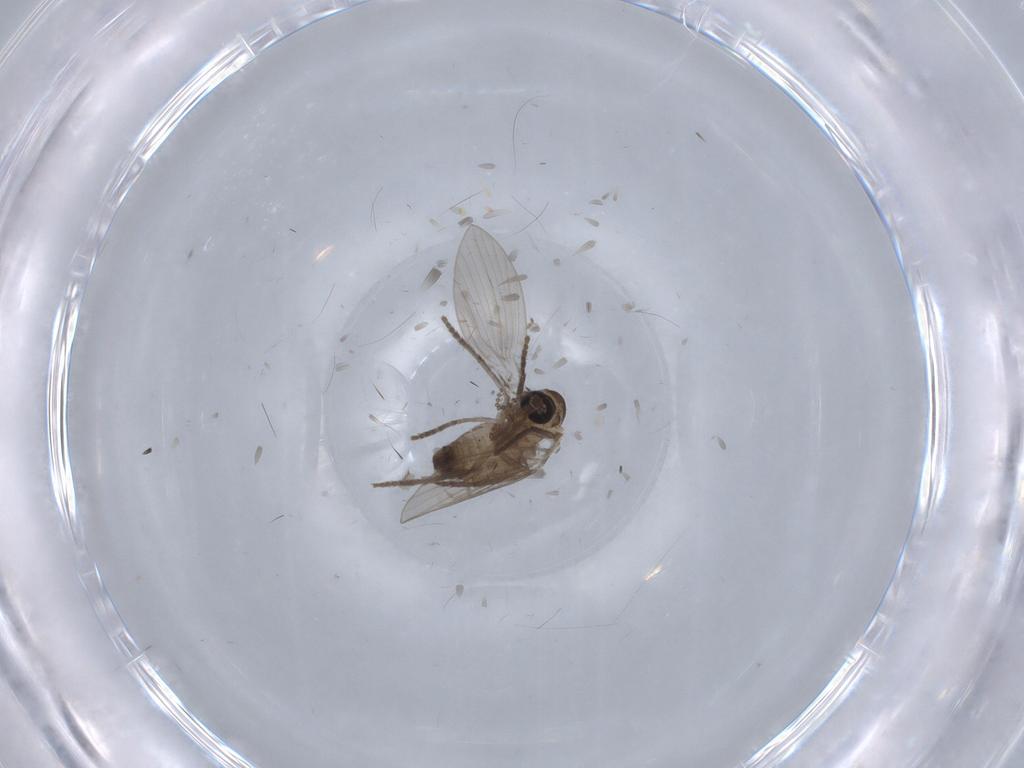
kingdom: Animalia
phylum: Arthropoda
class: Insecta
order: Diptera
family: Psychodidae
